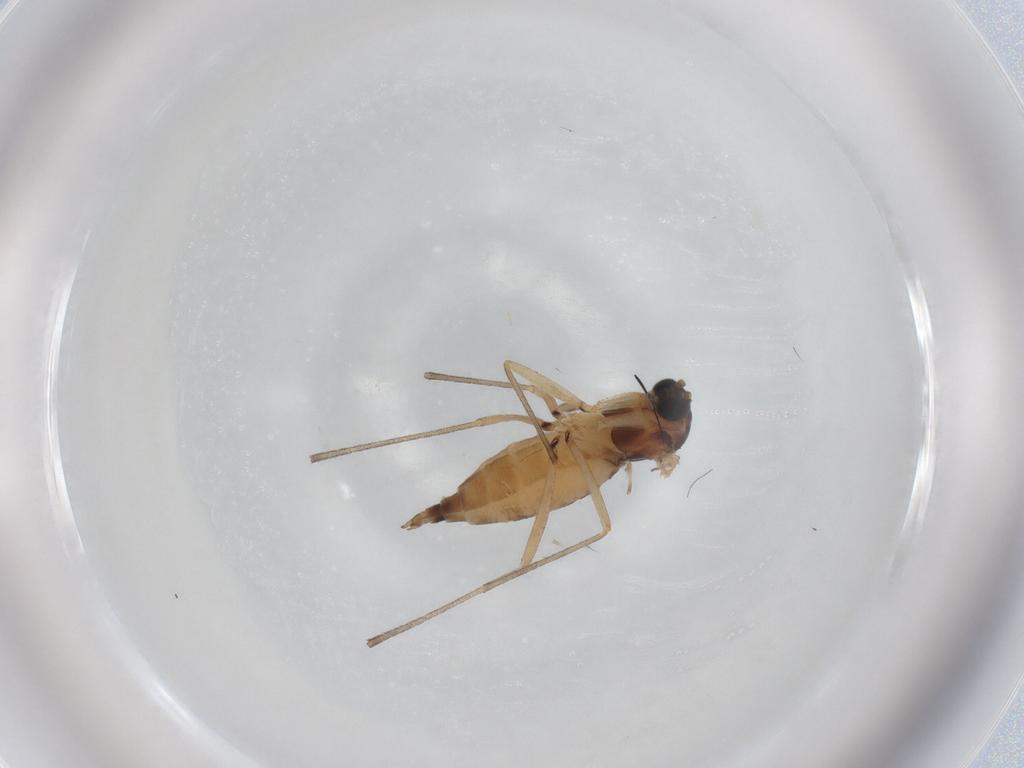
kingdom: Animalia
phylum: Arthropoda
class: Insecta
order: Diptera
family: Sciaridae
